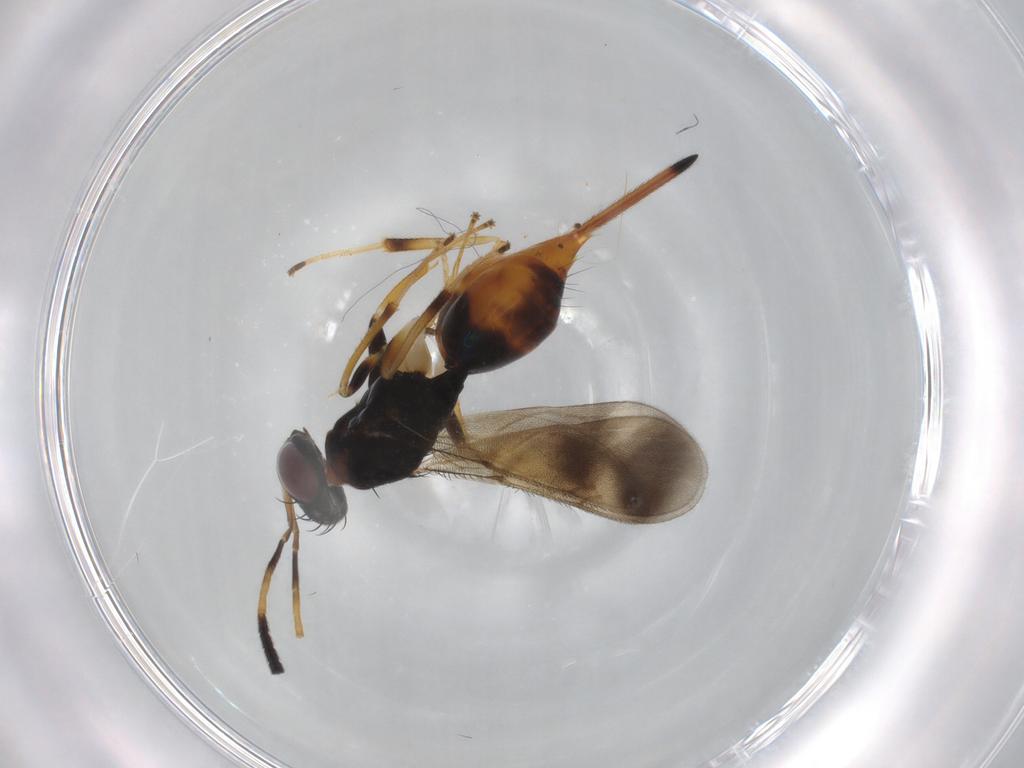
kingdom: Animalia
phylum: Arthropoda
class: Insecta
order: Hymenoptera
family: Diparidae
